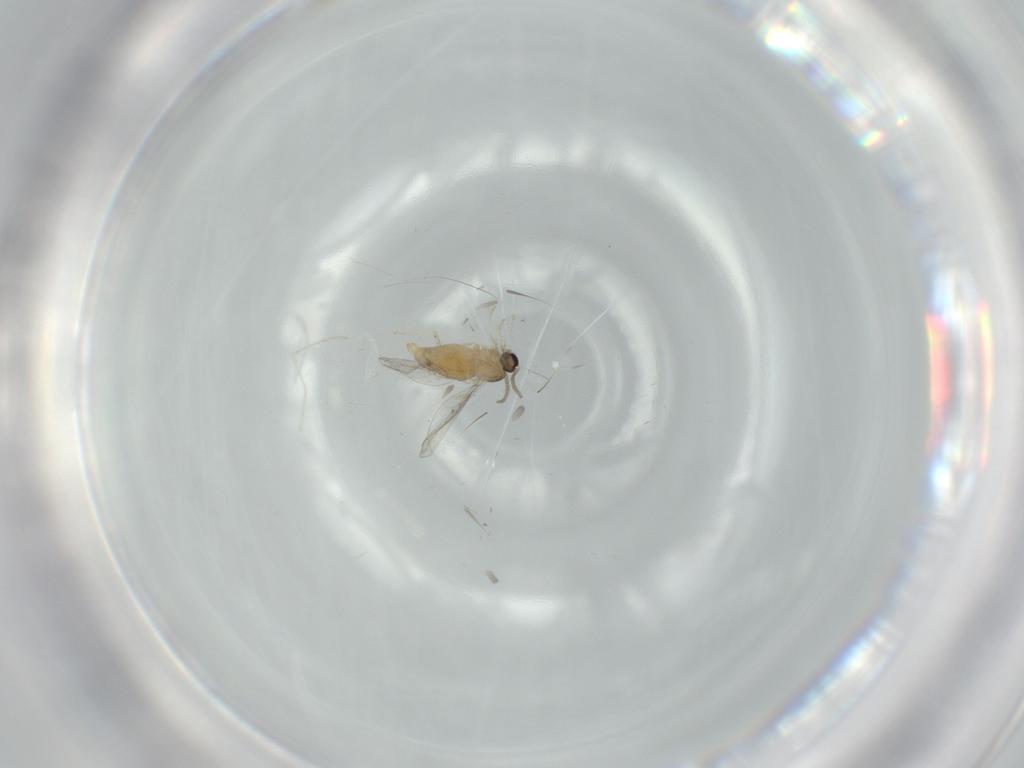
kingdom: Animalia
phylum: Arthropoda
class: Insecta
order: Diptera
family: Cecidomyiidae
